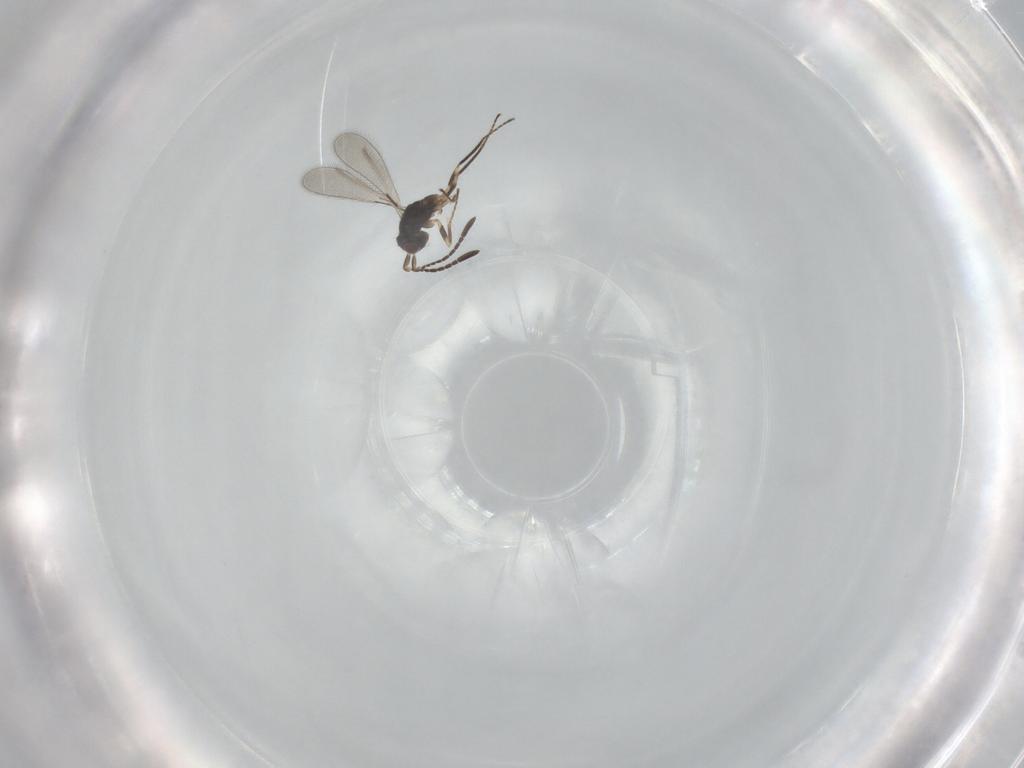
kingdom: Animalia
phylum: Arthropoda
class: Insecta
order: Hymenoptera
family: Mymaridae
